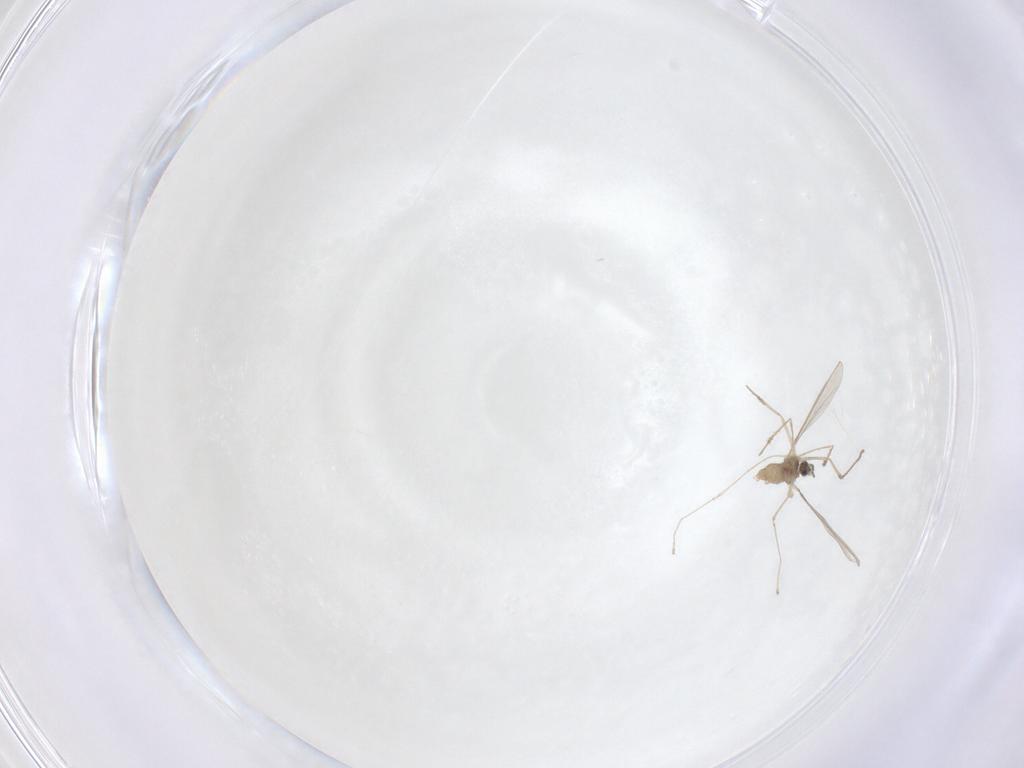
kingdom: Animalia
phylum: Arthropoda
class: Insecta
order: Diptera
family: Cecidomyiidae
